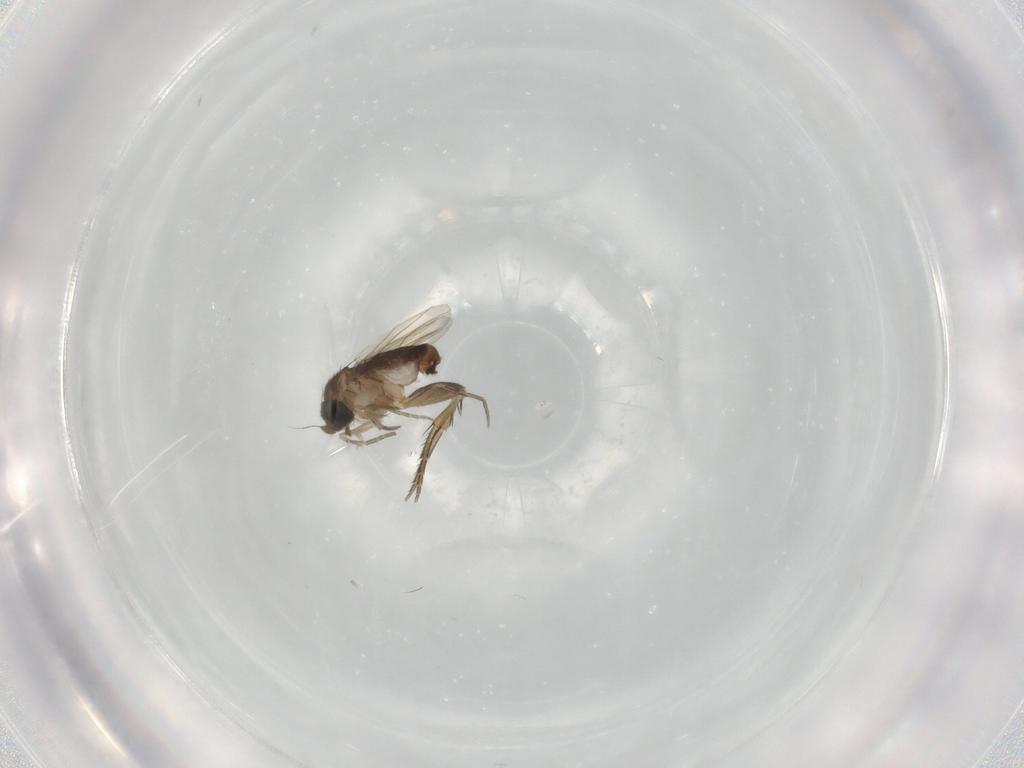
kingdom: Animalia
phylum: Arthropoda
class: Insecta
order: Diptera
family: Phoridae
